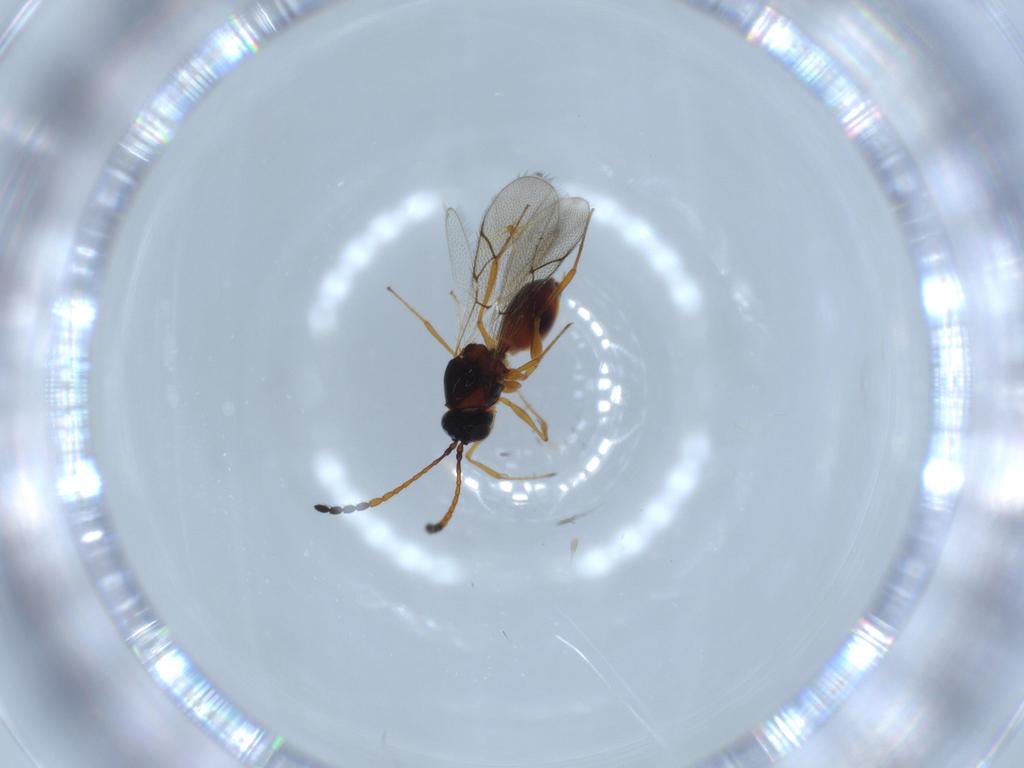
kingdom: Animalia
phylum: Arthropoda
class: Insecta
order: Hymenoptera
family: Figitidae
